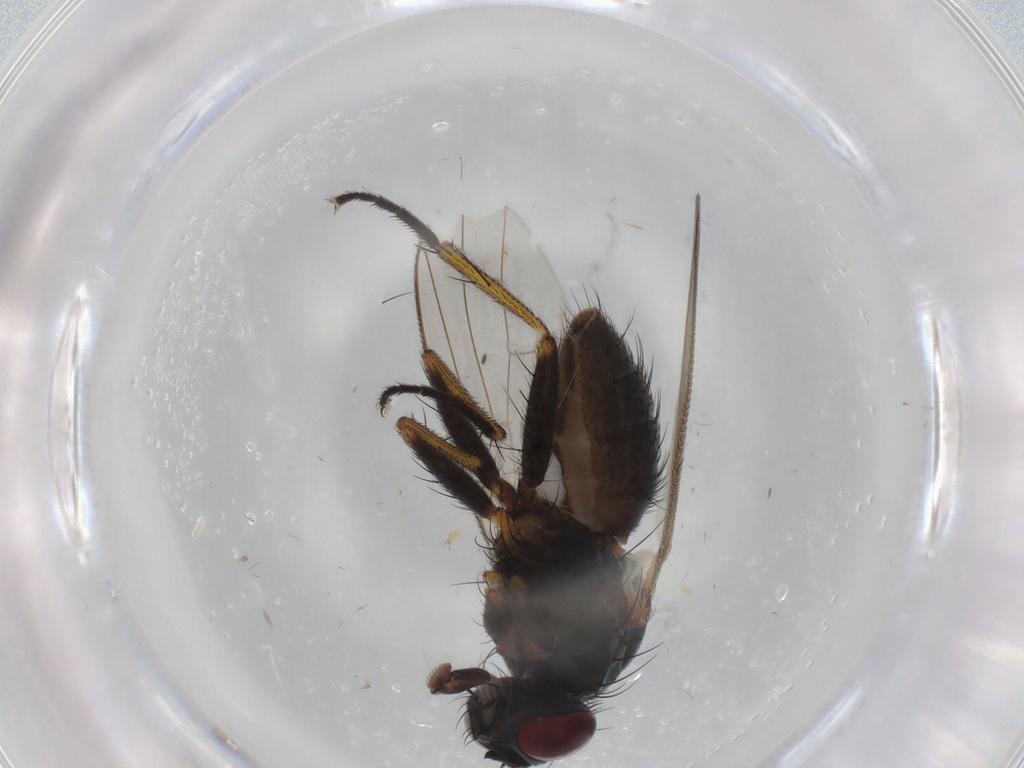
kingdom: Animalia
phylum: Arthropoda
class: Insecta
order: Diptera
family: Muscidae
